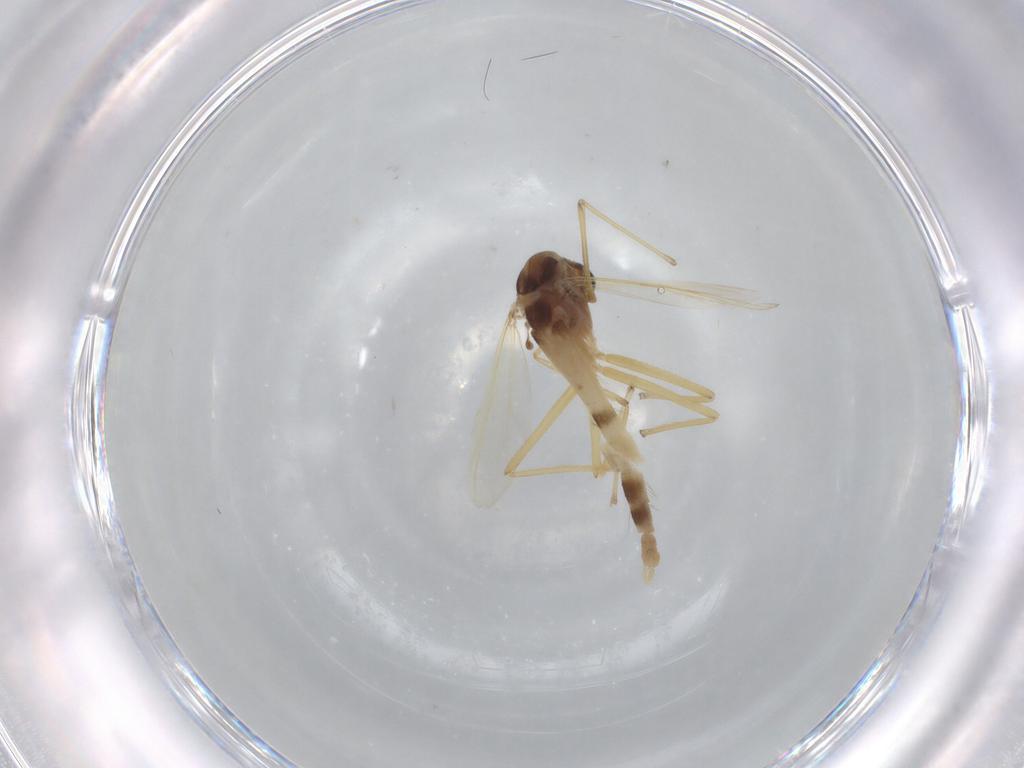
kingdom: Animalia
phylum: Arthropoda
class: Insecta
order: Diptera
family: Chironomidae
